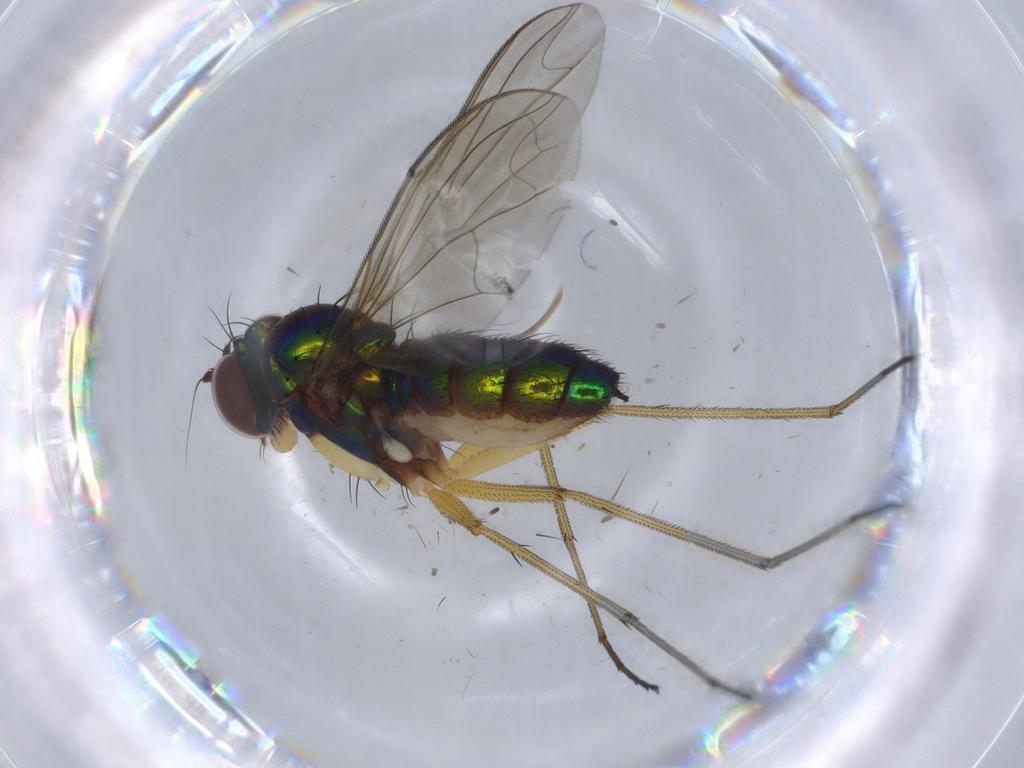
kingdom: Animalia
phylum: Arthropoda
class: Insecta
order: Diptera
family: Dolichopodidae
